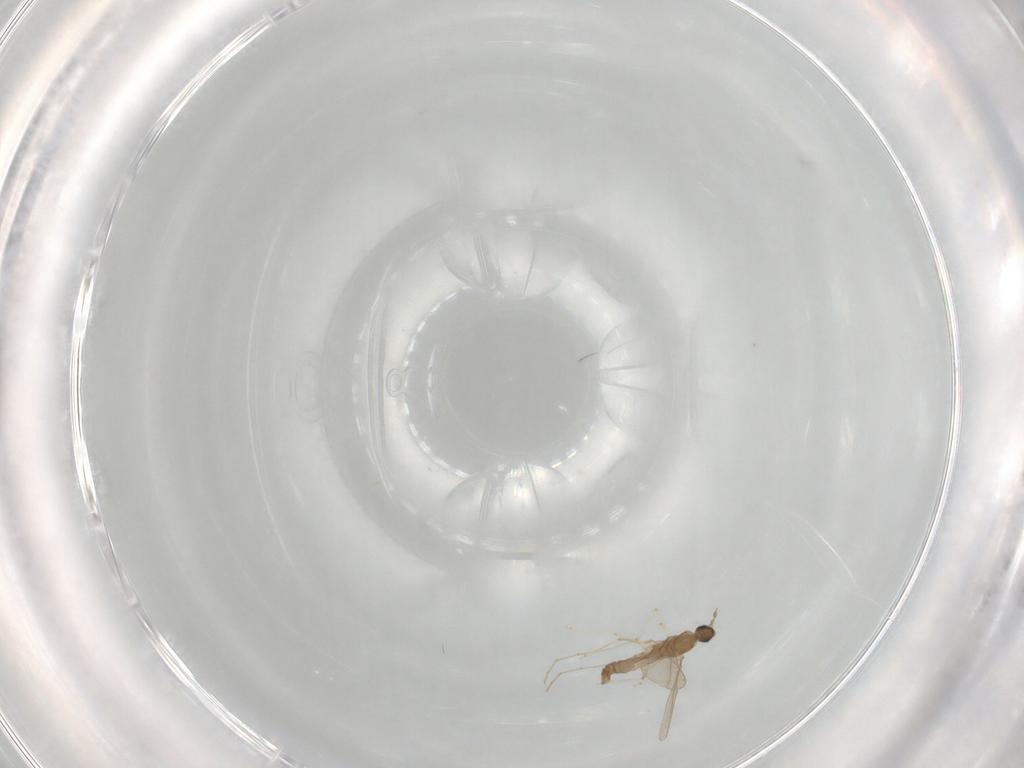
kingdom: Animalia
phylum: Arthropoda
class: Insecta
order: Diptera
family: Cecidomyiidae
